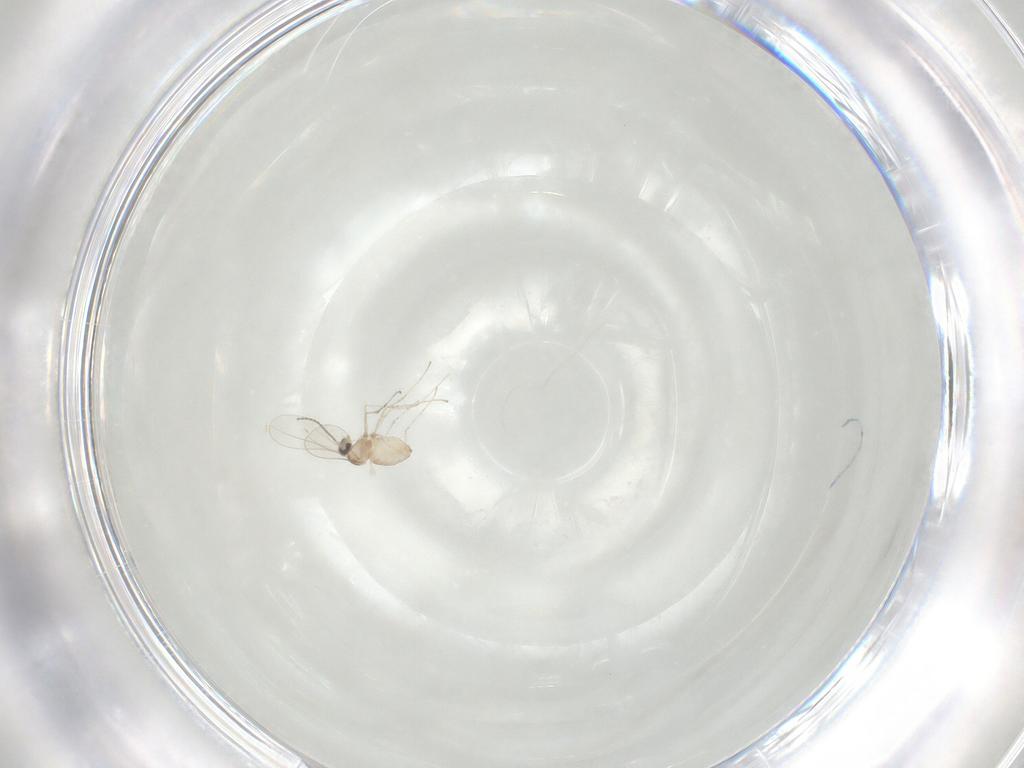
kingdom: Animalia
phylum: Arthropoda
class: Insecta
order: Diptera
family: Cecidomyiidae
